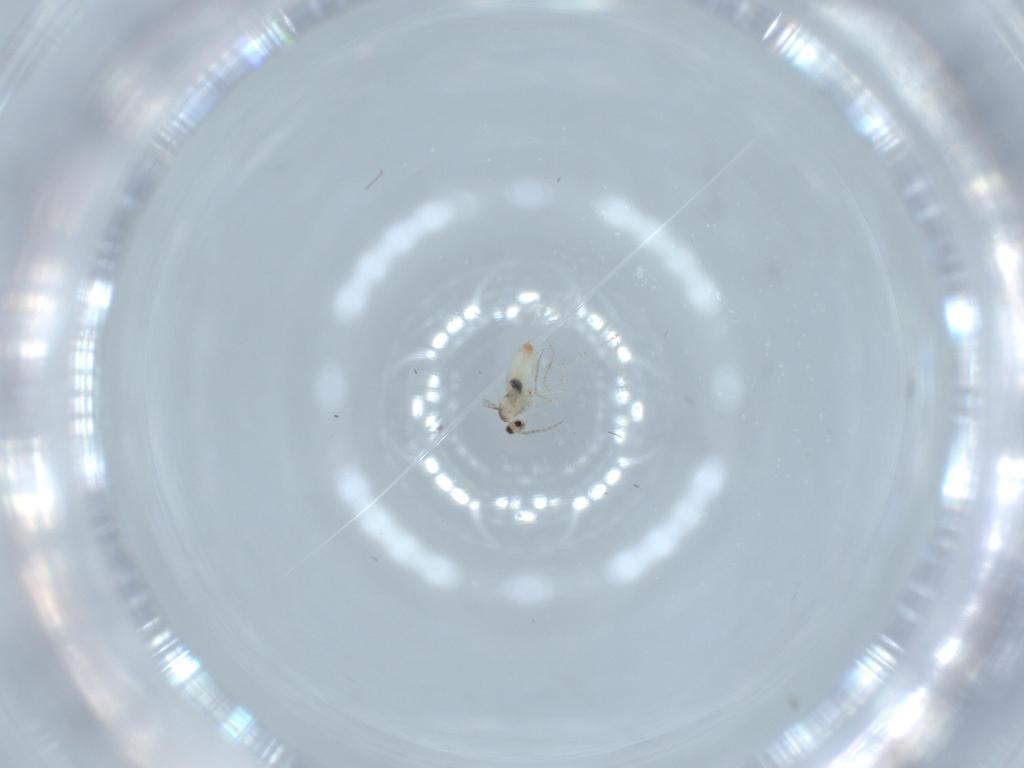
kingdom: Animalia
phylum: Arthropoda
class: Insecta
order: Diptera
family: Cecidomyiidae
